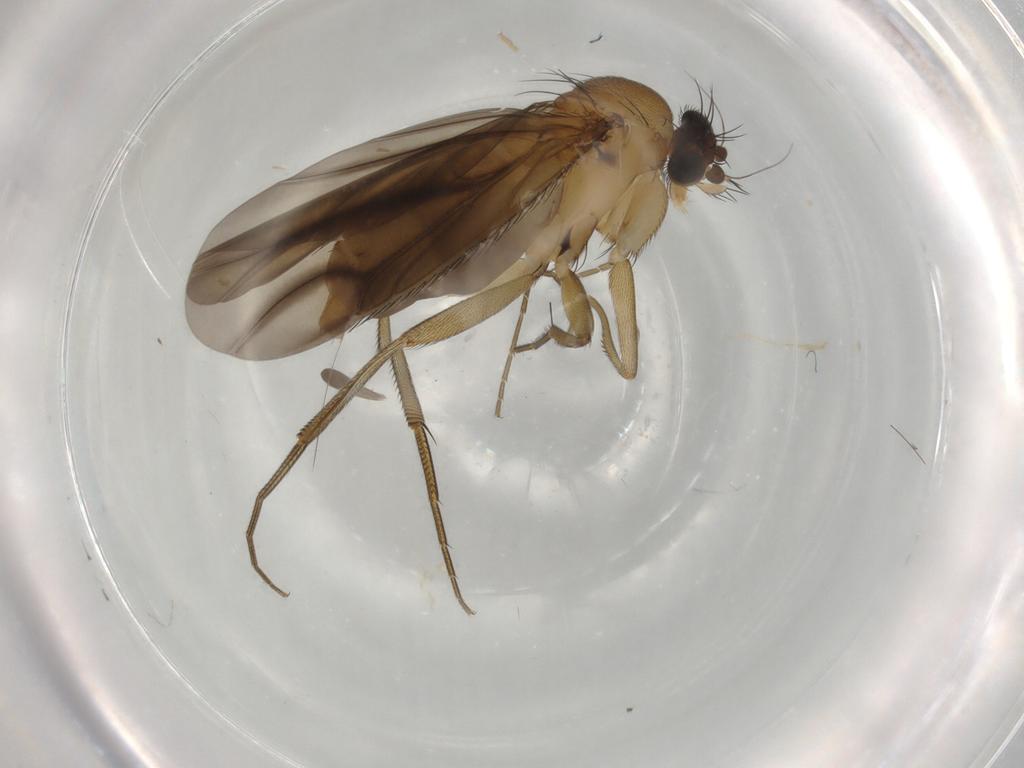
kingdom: Animalia
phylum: Arthropoda
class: Insecta
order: Diptera
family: Phoridae
